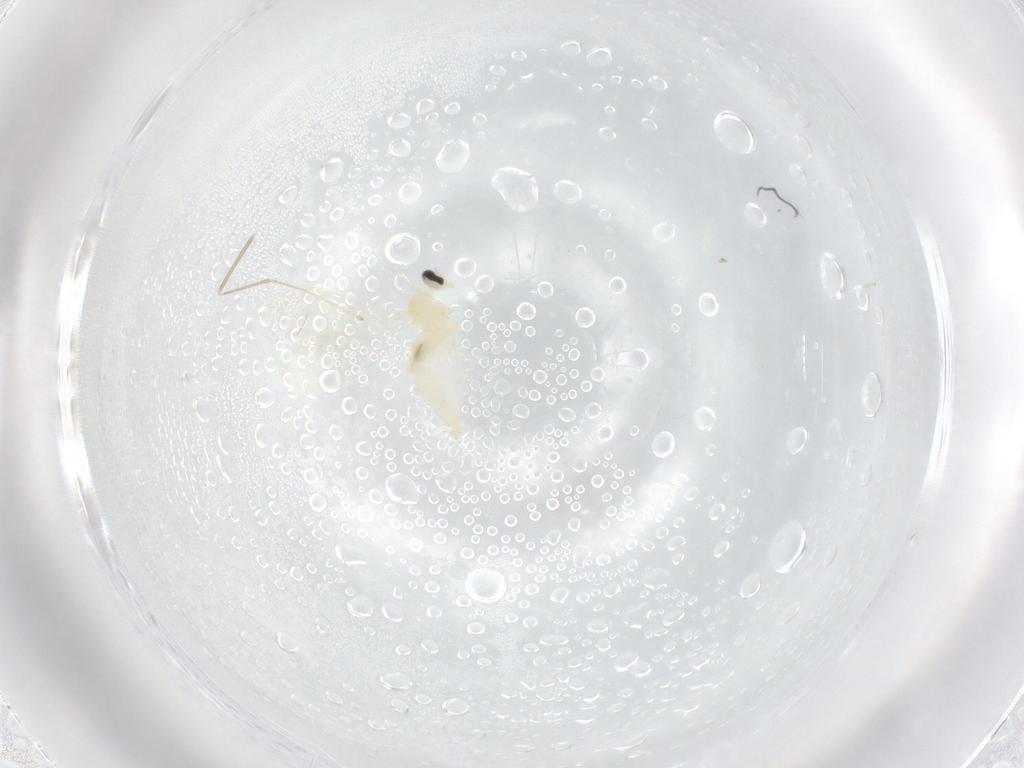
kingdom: Animalia
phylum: Arthropoda
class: Insecta
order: Diptera
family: Cecidomyiidae
